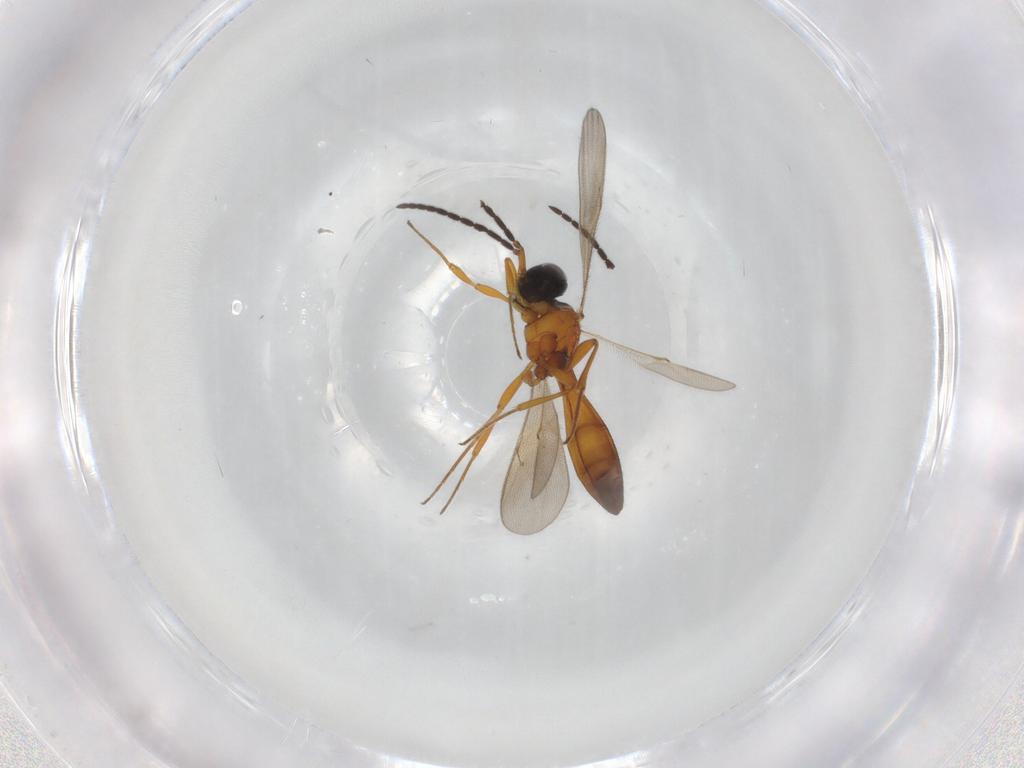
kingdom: Animalia
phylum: Arthropoda
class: Insecta
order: Hymenoptera
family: Scelionidae
